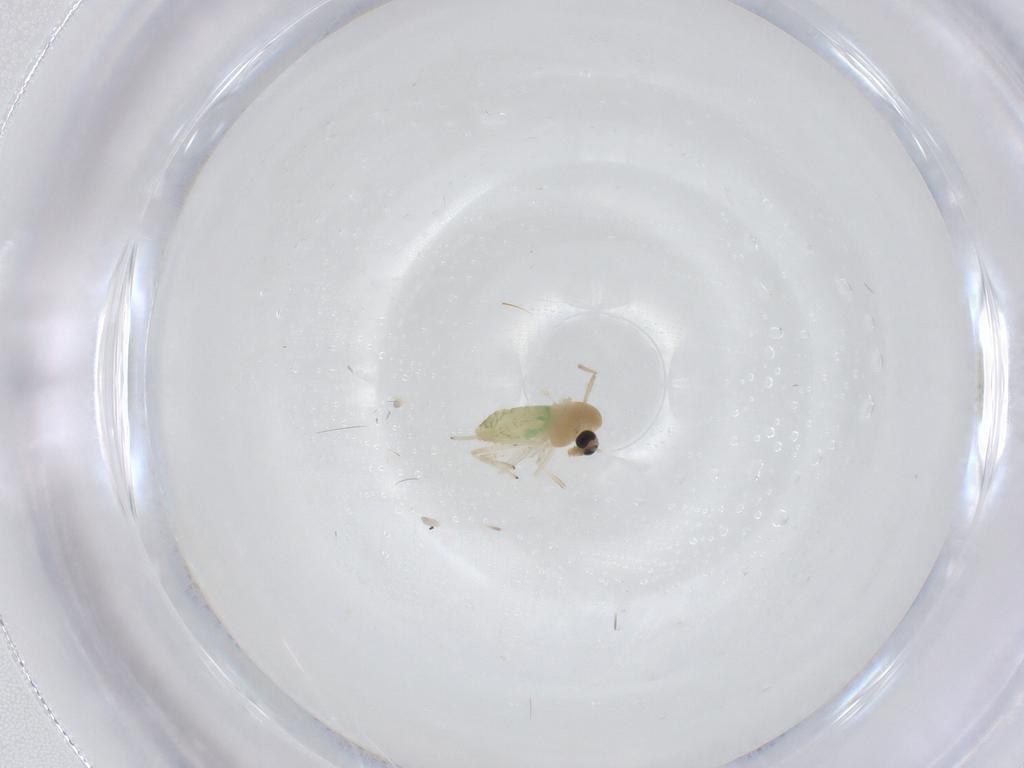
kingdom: Animalia
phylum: Arthropoda
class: Insecta
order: Diptera
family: Chironomidae
